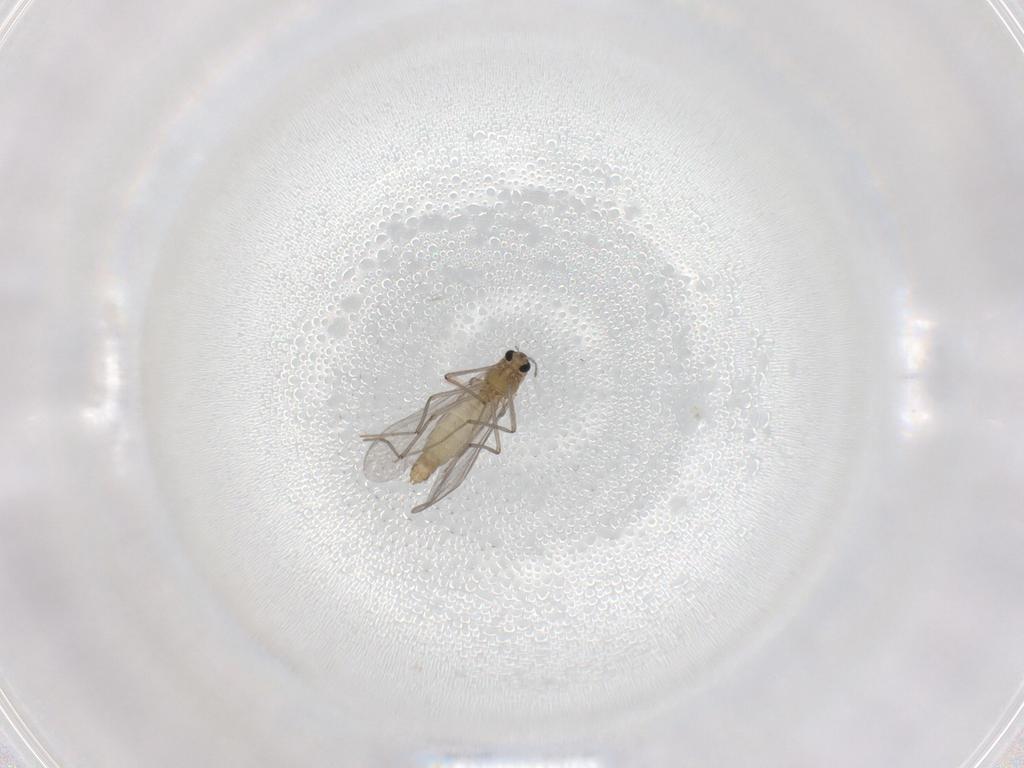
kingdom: Animalia
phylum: Arthropoda
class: Insecta
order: Diptera
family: Chironomidae
